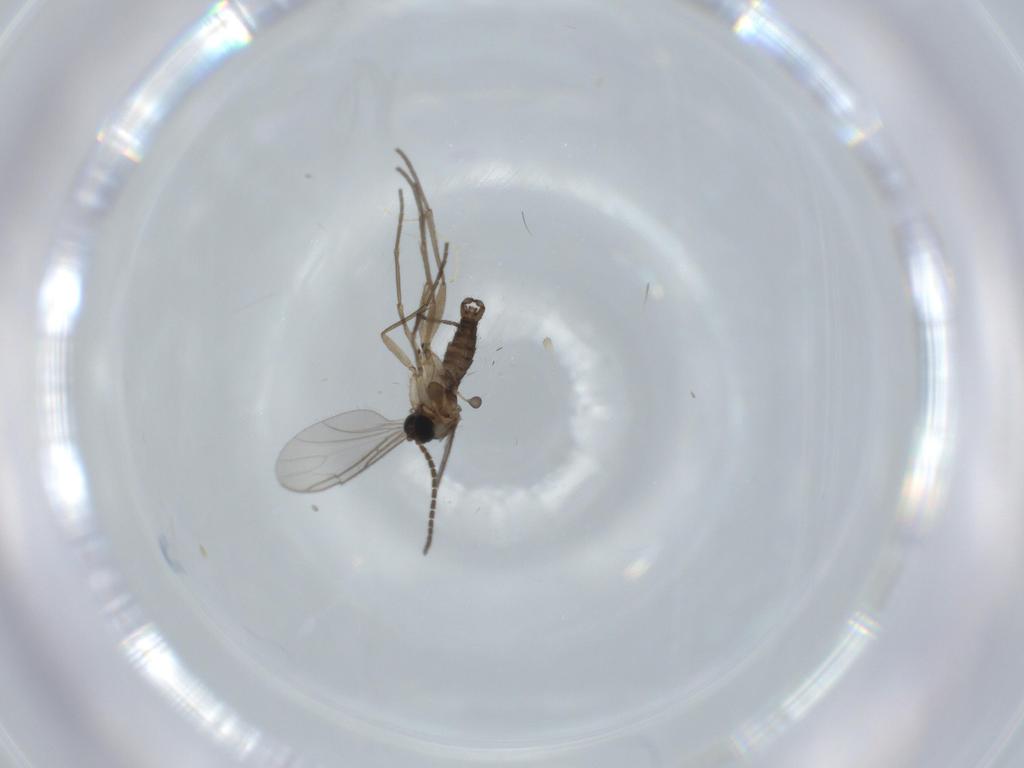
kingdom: Animalia
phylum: Arthropoda
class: Insecta
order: Diptera
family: Sciaridae
